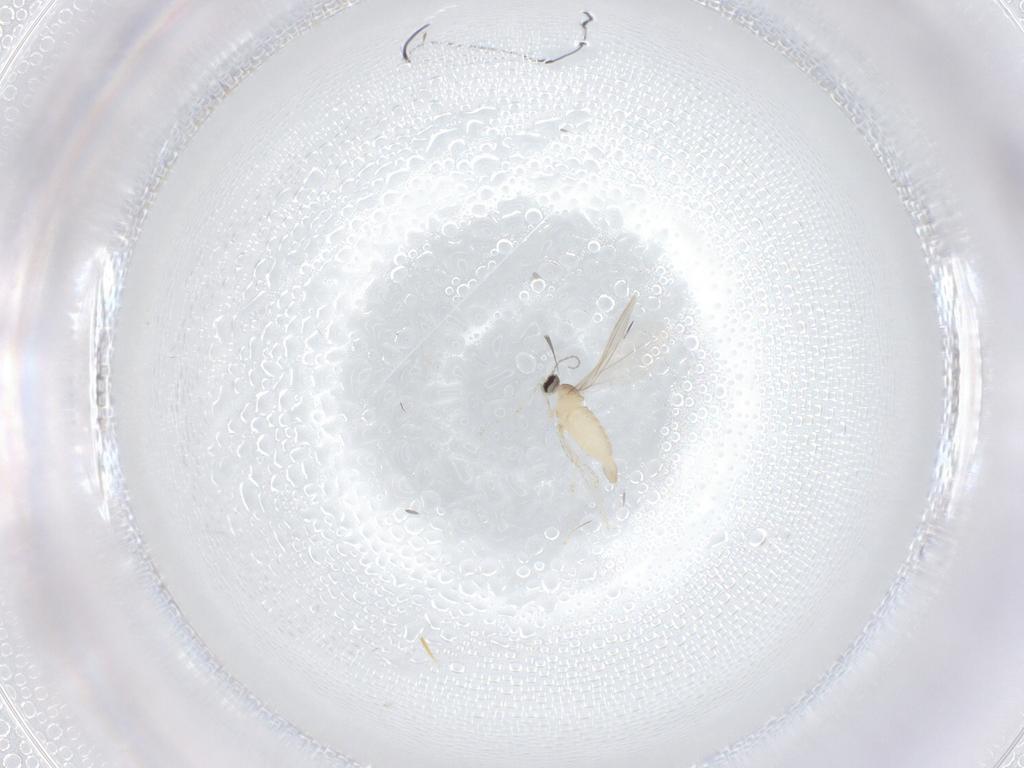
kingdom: Animalia
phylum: Arthropoda
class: Insecta
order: Diptera
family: Cecidomyiidae
